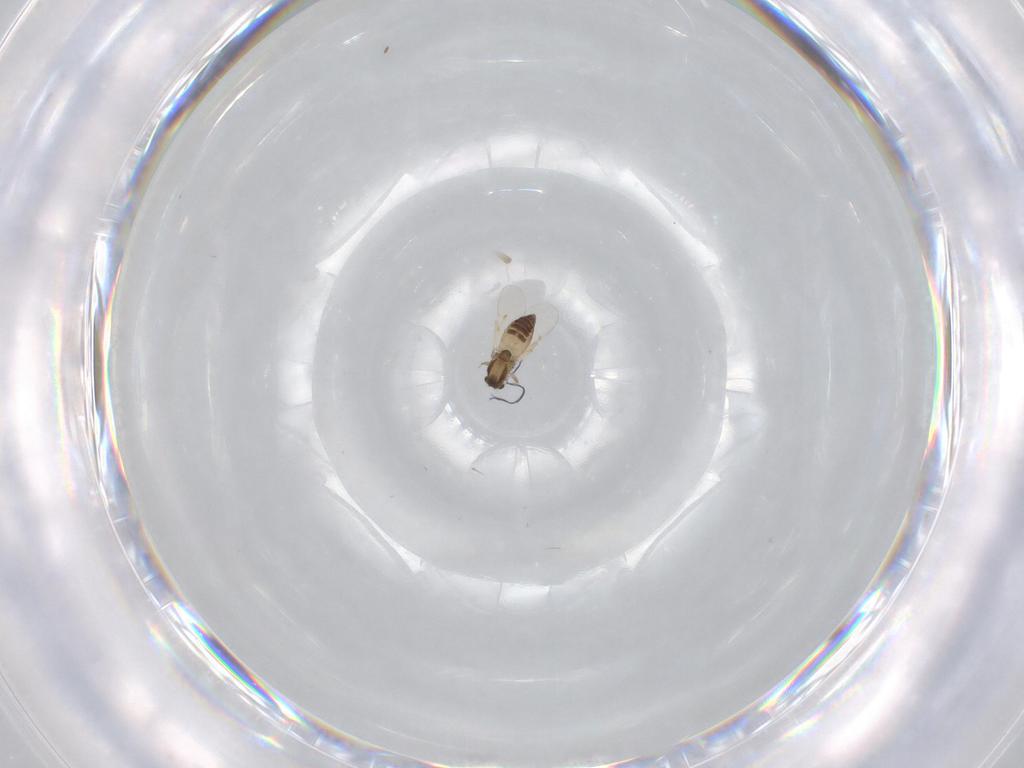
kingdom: Animalia
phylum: Arthropoda
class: Insecta
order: Diptera
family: Chironomidae
